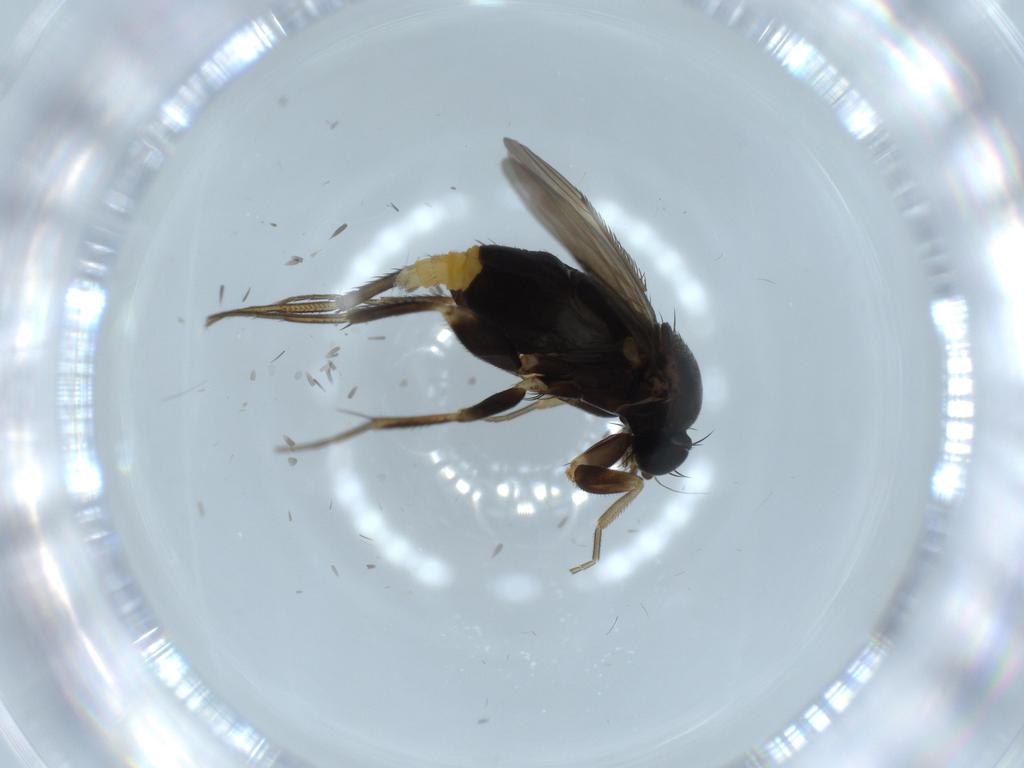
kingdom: Animalia
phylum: Arthropoda
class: Insecta
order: Diptera
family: Phoridae
